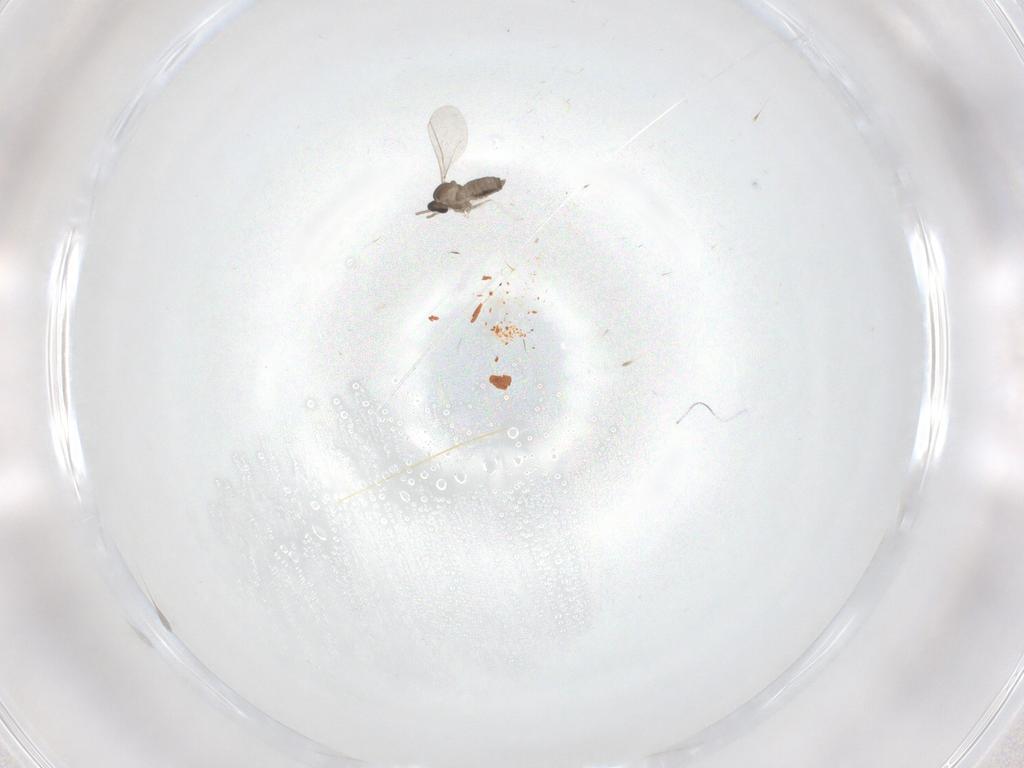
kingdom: Animalia
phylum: Arthropoda
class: Insecta
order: Diptera
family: Cecidomyiidae
